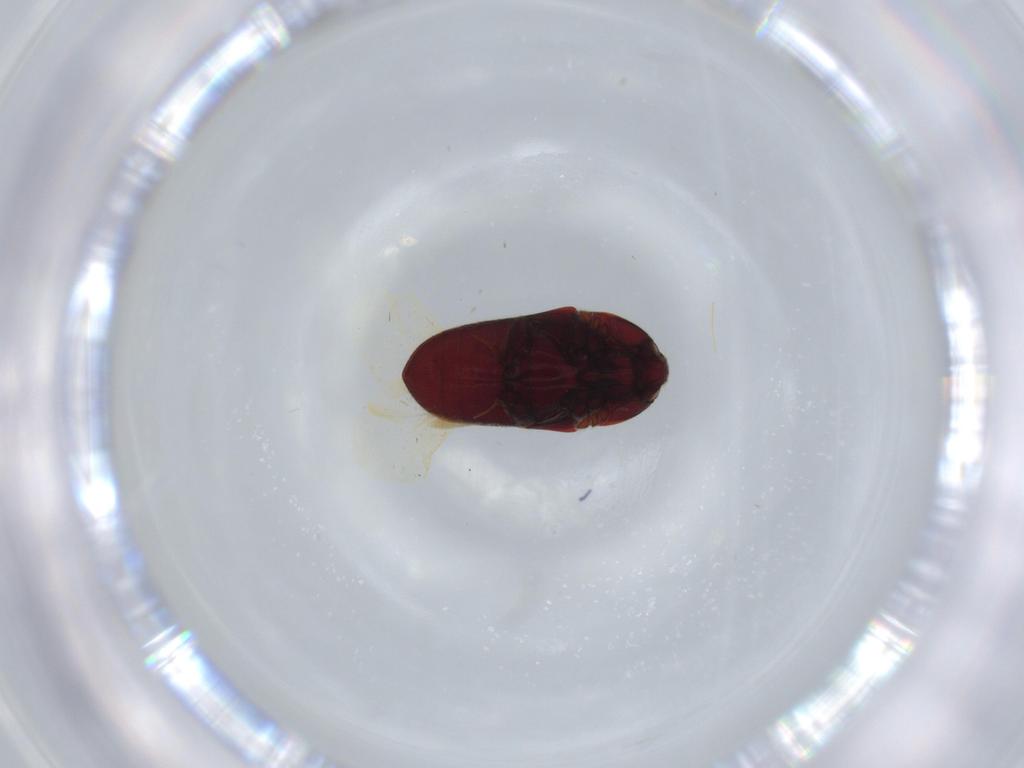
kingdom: Animalia
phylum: Arthropoda
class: Insecta
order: Coleoptera
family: Throscidae
